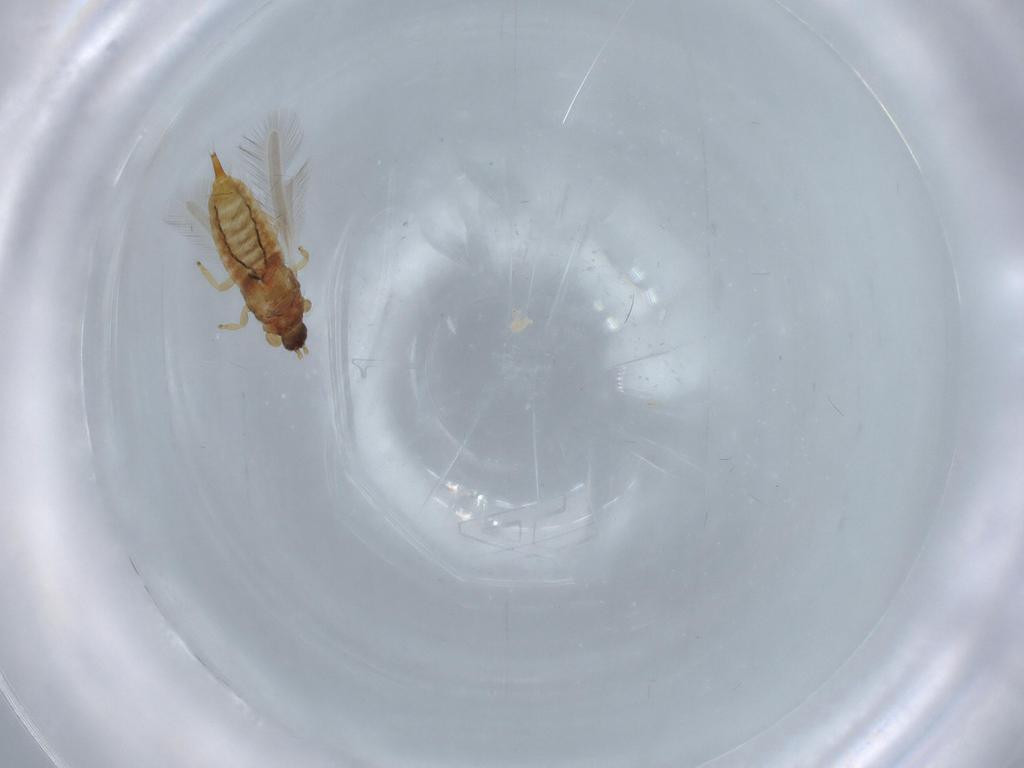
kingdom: Animalia
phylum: Arthropoda
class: Insecta
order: Thysanoptera
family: Phlaeothripidae
